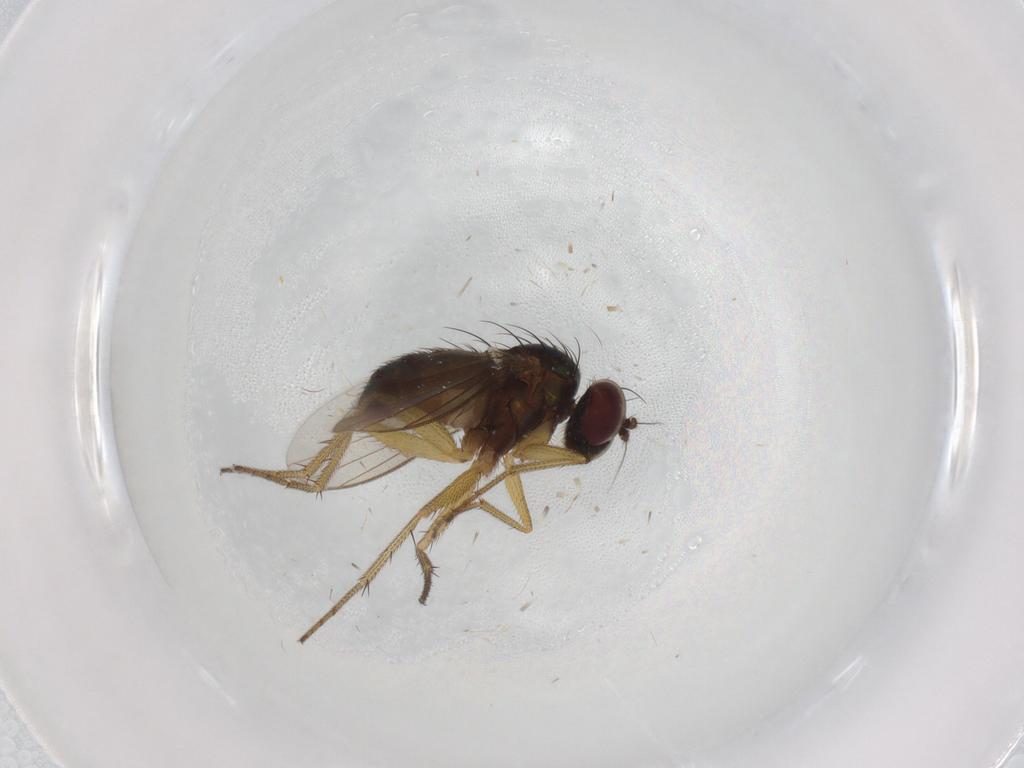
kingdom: Animalia
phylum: Arthropoda
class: Insecta
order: Diptera
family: Dolichopodidae
